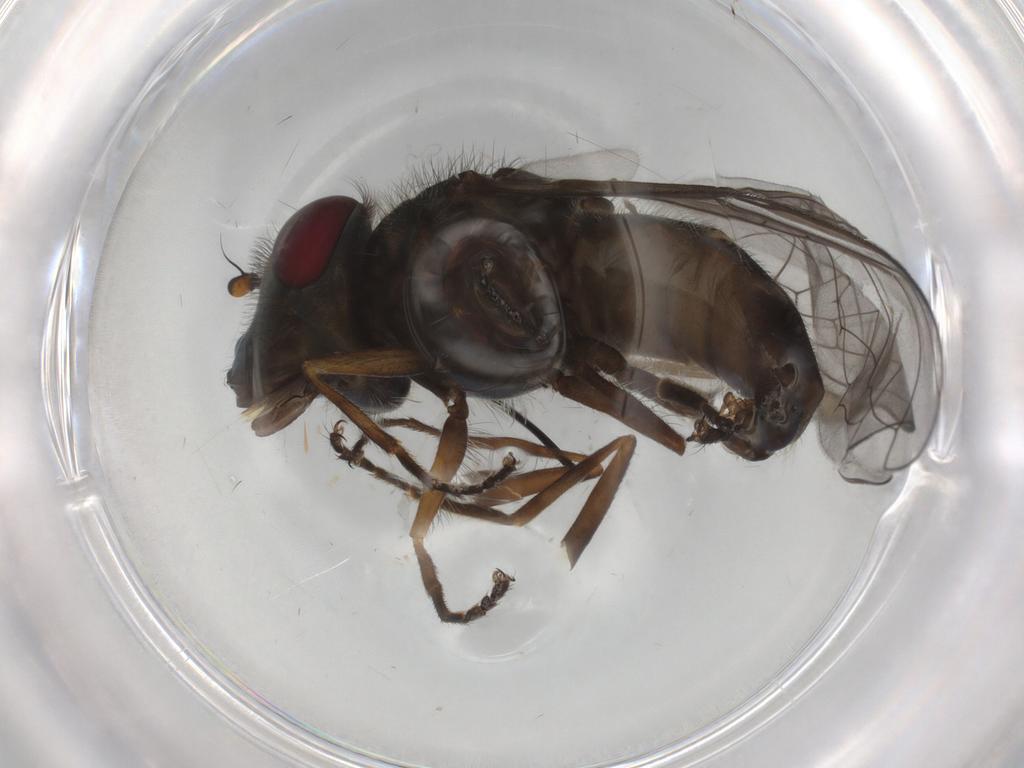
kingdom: Animalia
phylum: Arthropoda
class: Insecta
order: Diptera
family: Syrphidae
